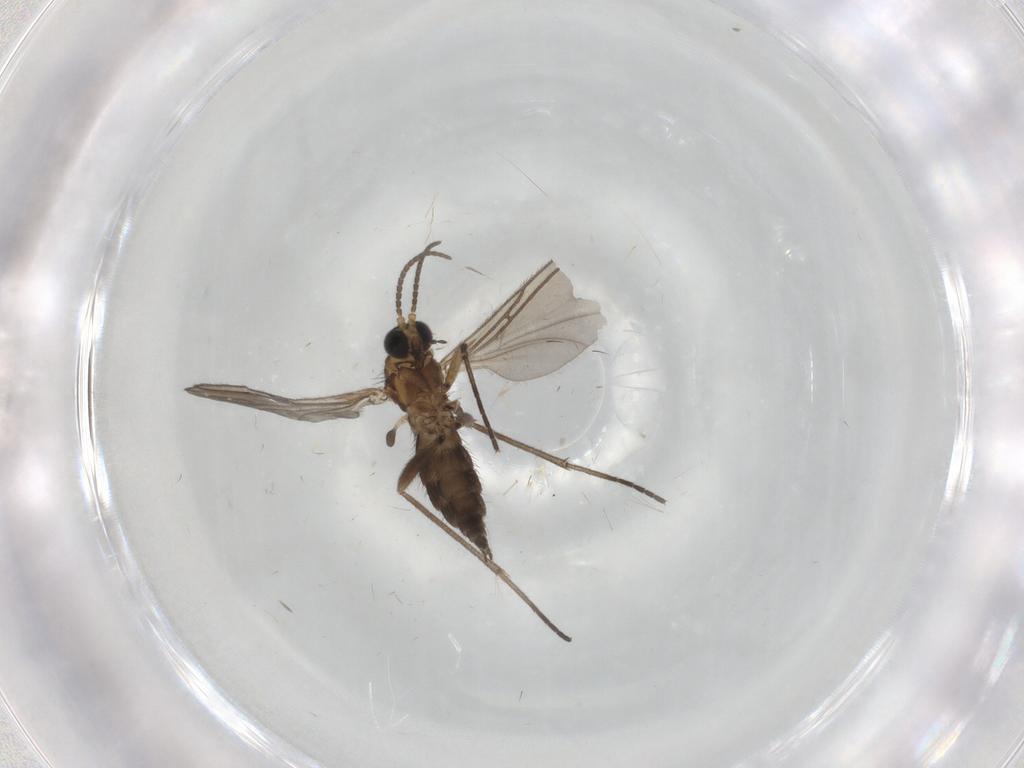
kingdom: Animalia
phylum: Arthropoda
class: Insecta
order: Diptera
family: Psychodidae
